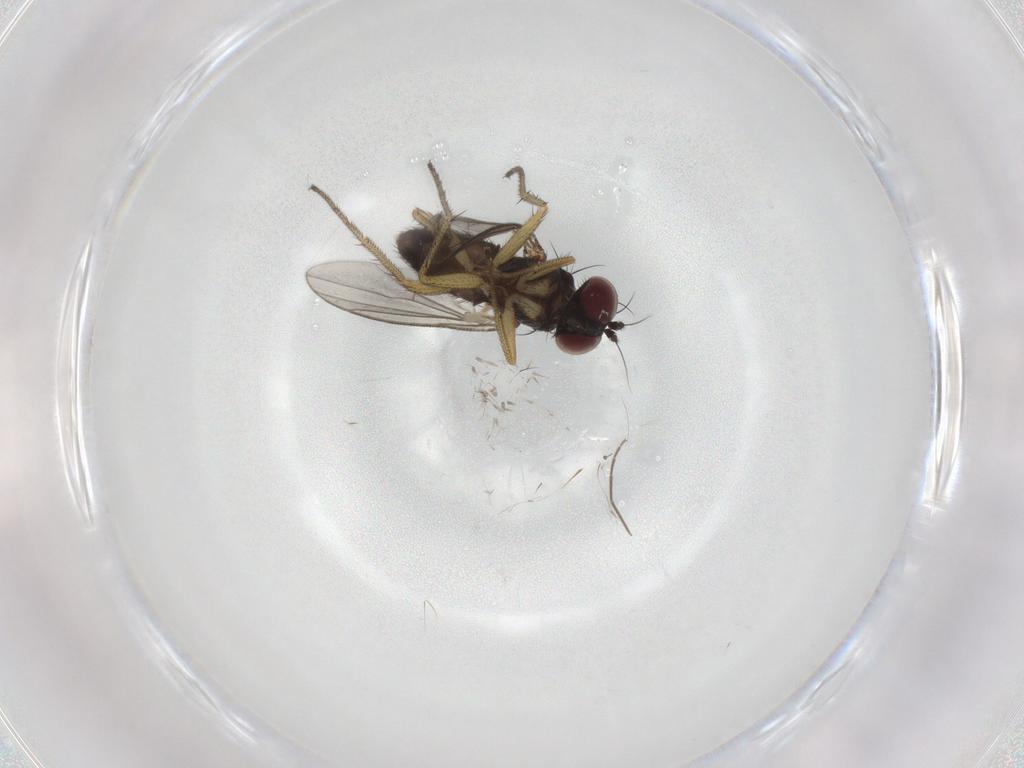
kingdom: Animalia
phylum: Arthropoda
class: Insecta
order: Diptera
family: Dolichopodidae
